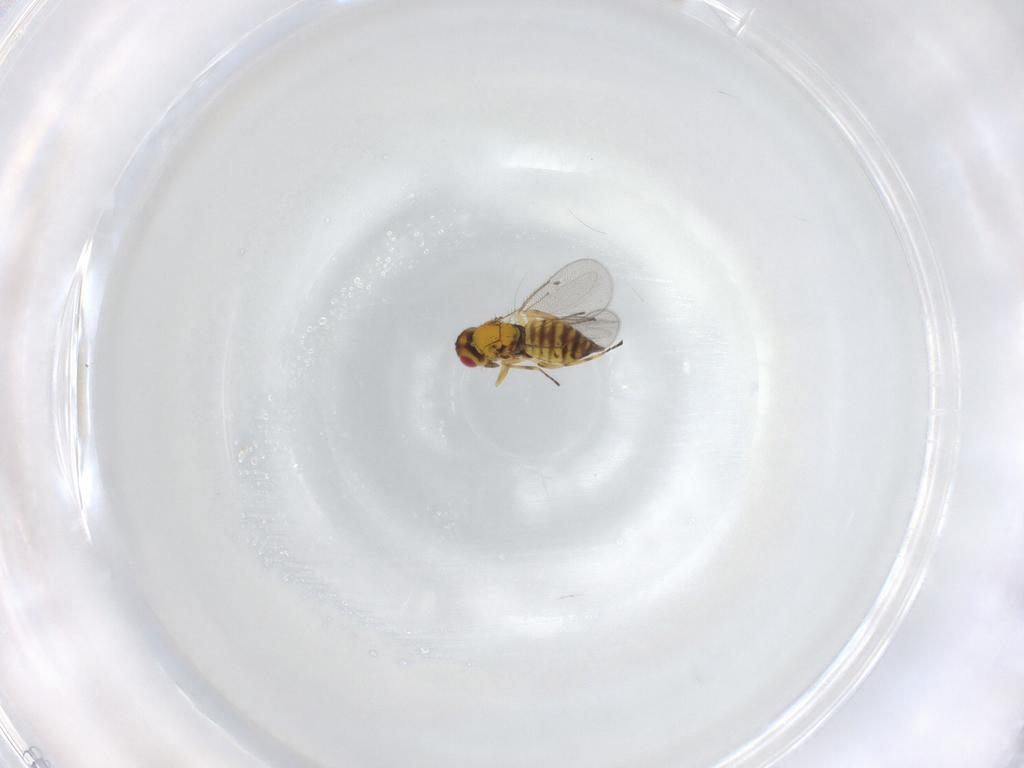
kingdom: Animalia
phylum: Arthropoda
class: Insecta
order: Hymenoptera
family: Eulophidae
